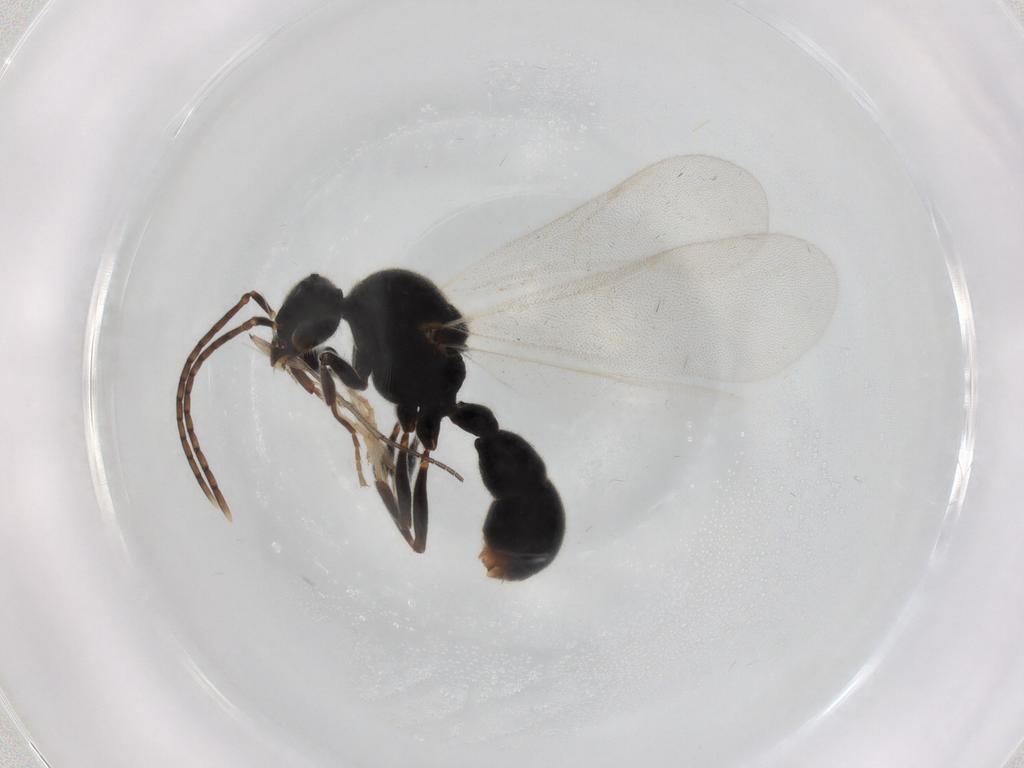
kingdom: Animalia
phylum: Arthropoda
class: Insecta
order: Hymenoptera
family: Formicidae
